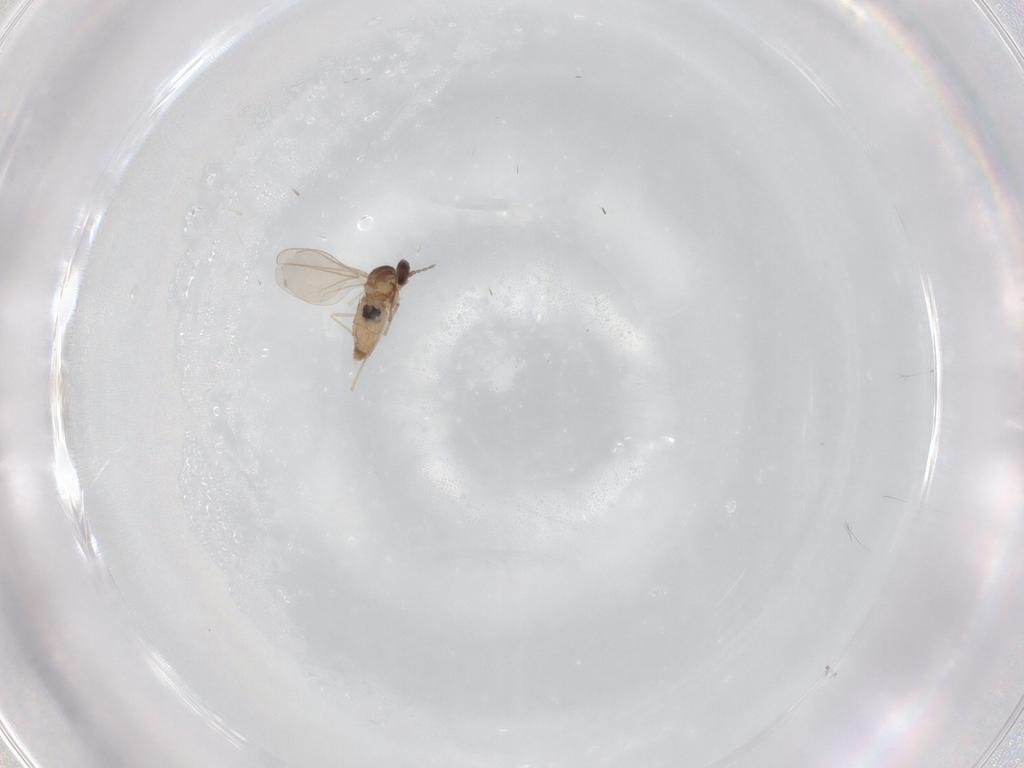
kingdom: Animalia
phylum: Arthropoda
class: Insecta
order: Diptera
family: Cecidomyiidae
